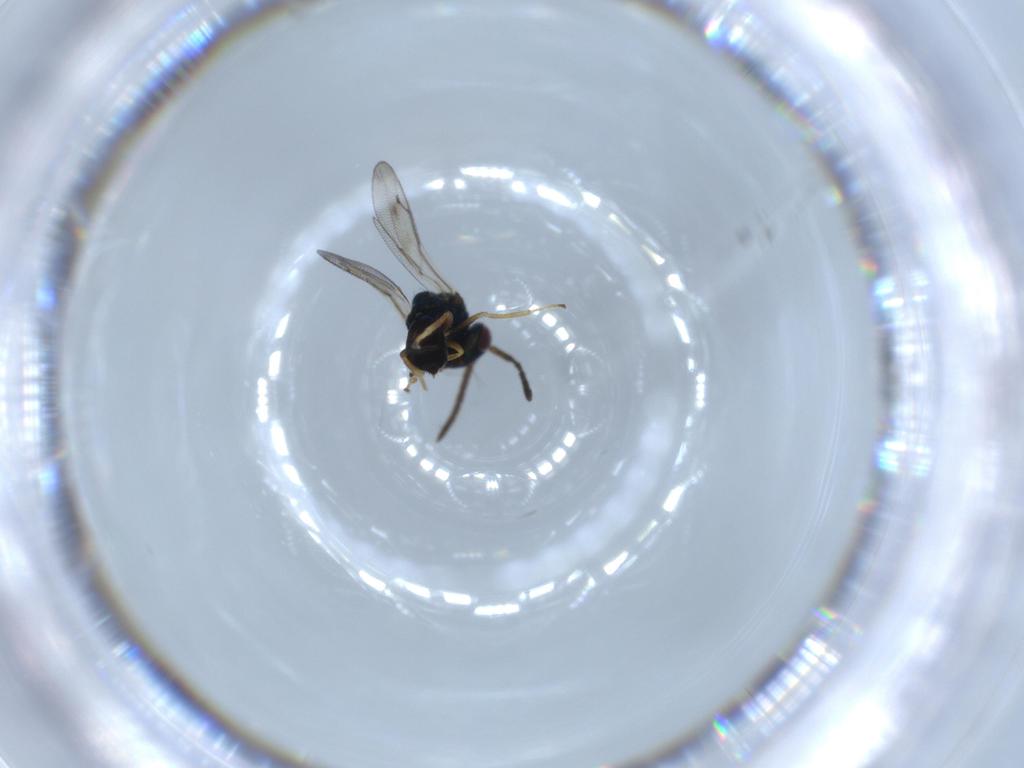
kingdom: Animalia
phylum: Arthropoda
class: Insecta
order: Hymenoptera
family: Pteromalidae
